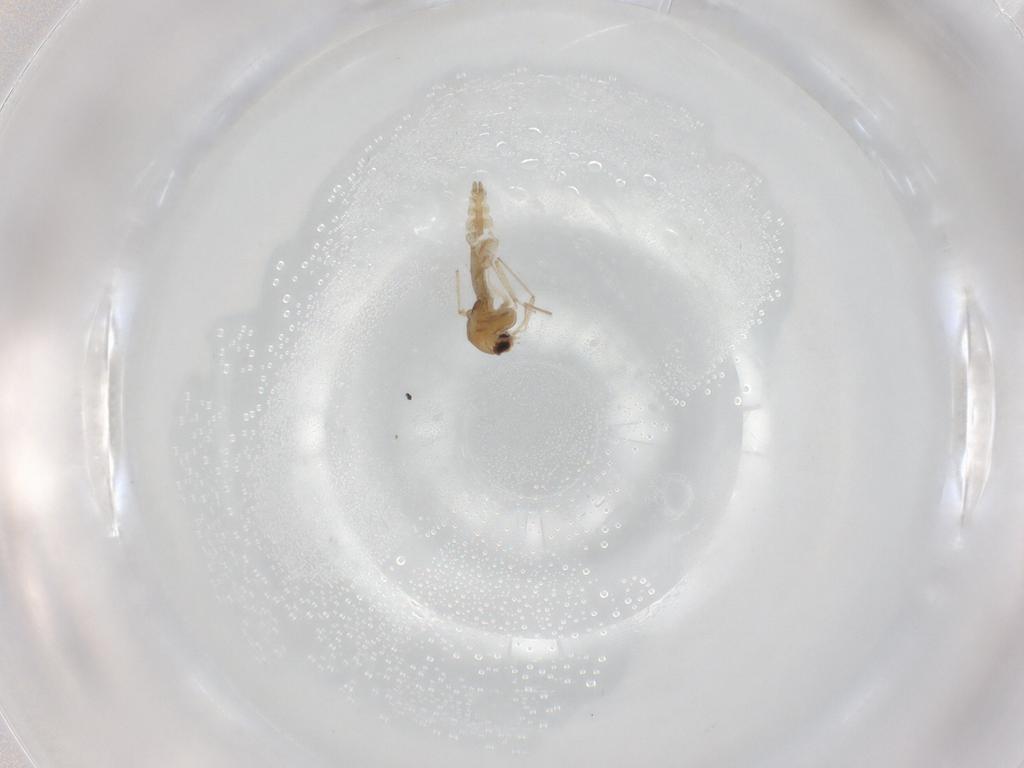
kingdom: Animalia
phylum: Arthropoda
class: Insecta
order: Diptera
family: Chironomidae
